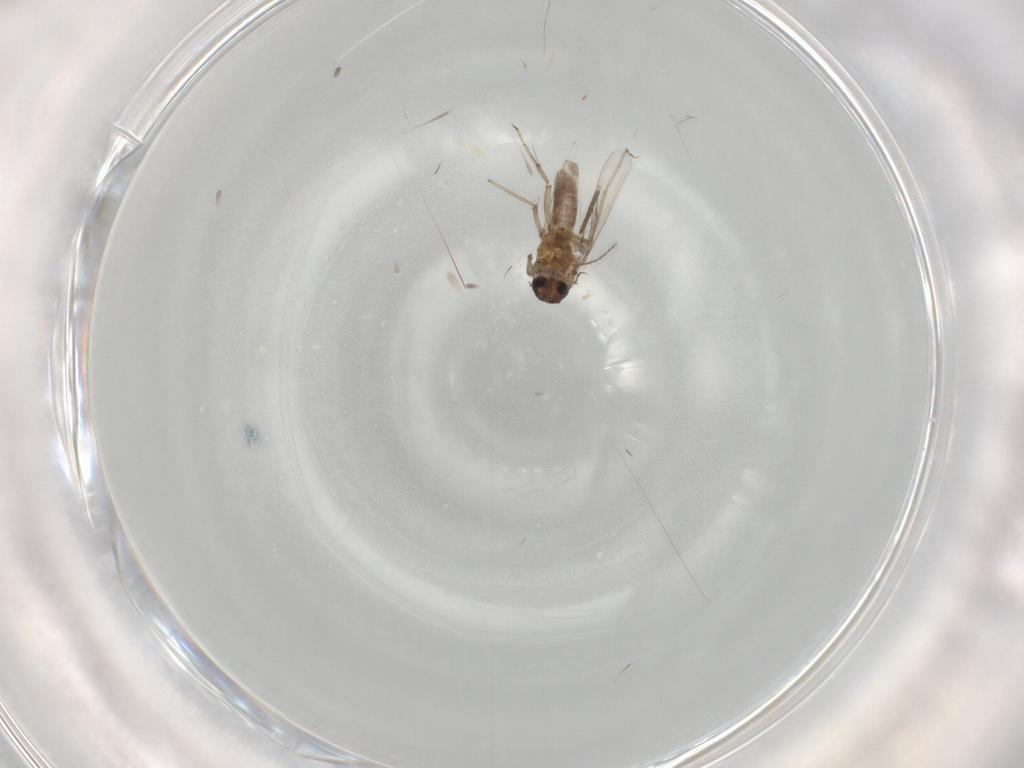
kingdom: Animalia
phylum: Arthropoda
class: Insecta
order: Diptera
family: Sciaridae
